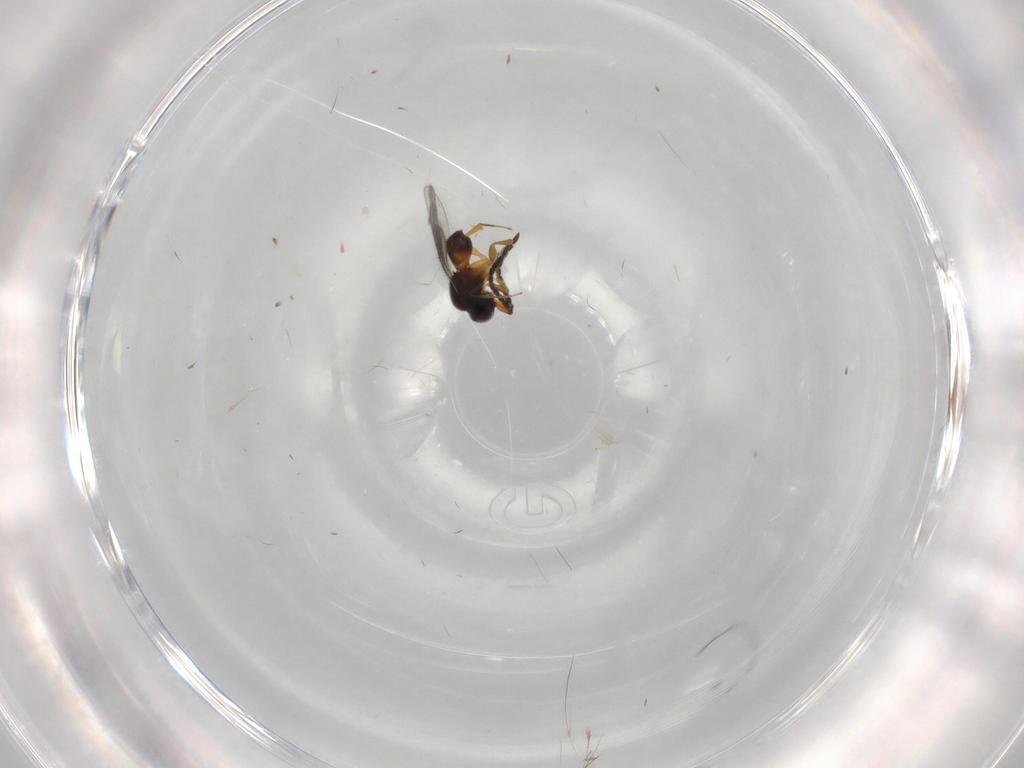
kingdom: Animalia
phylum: Arthropoda
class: Insecta
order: Hymenoptera
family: Ceraphronidae
